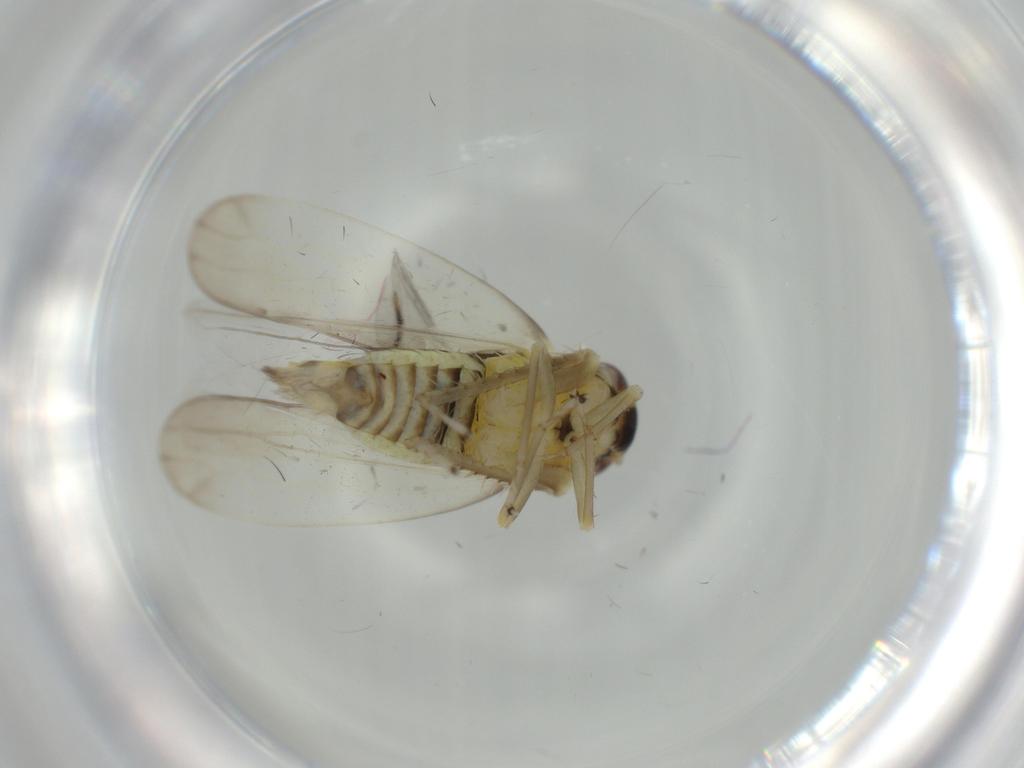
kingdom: Animalia
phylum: Arthropoda
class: Insecta
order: Hemiptera
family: Cicadellidae
